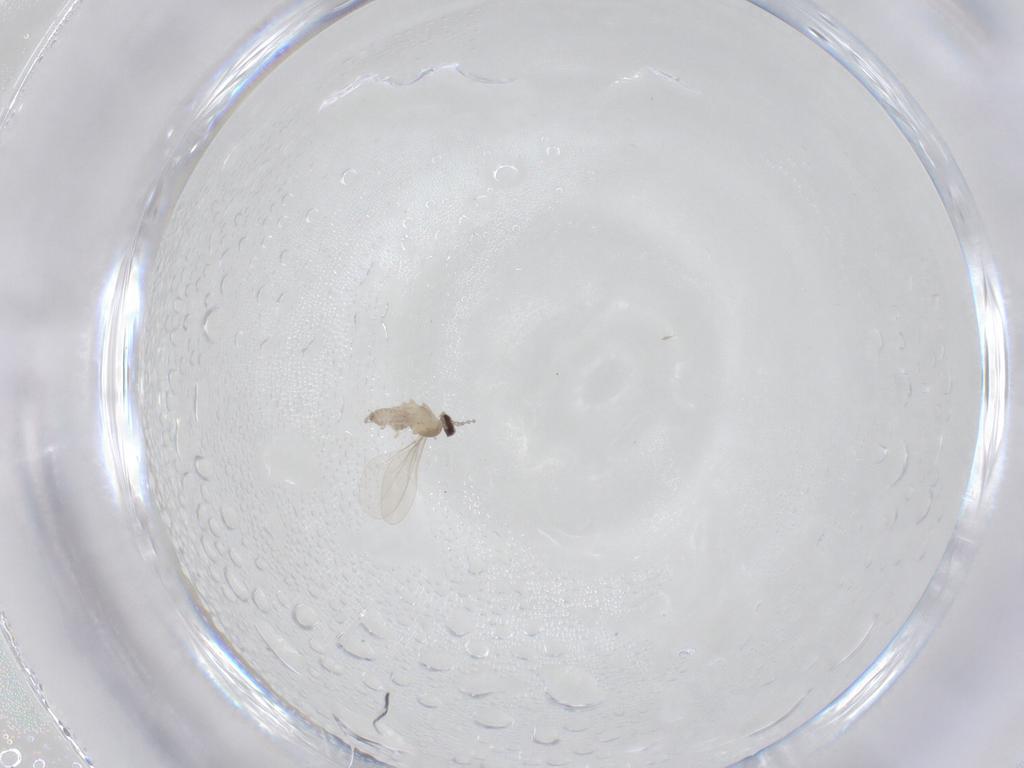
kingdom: Animalia
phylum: Arthropoda
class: Insecta
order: Diptera
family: Cecidomyiidae
